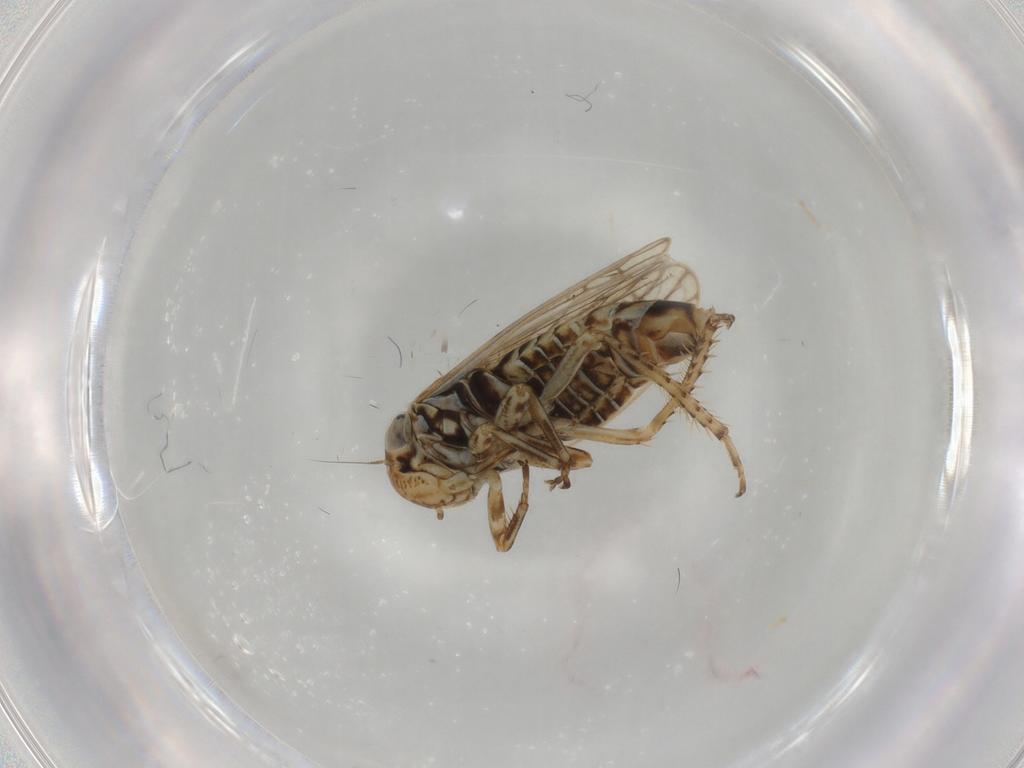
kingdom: Animalia
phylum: Arthropoda
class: Insecta
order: Hemiptera
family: Cicadellidae
